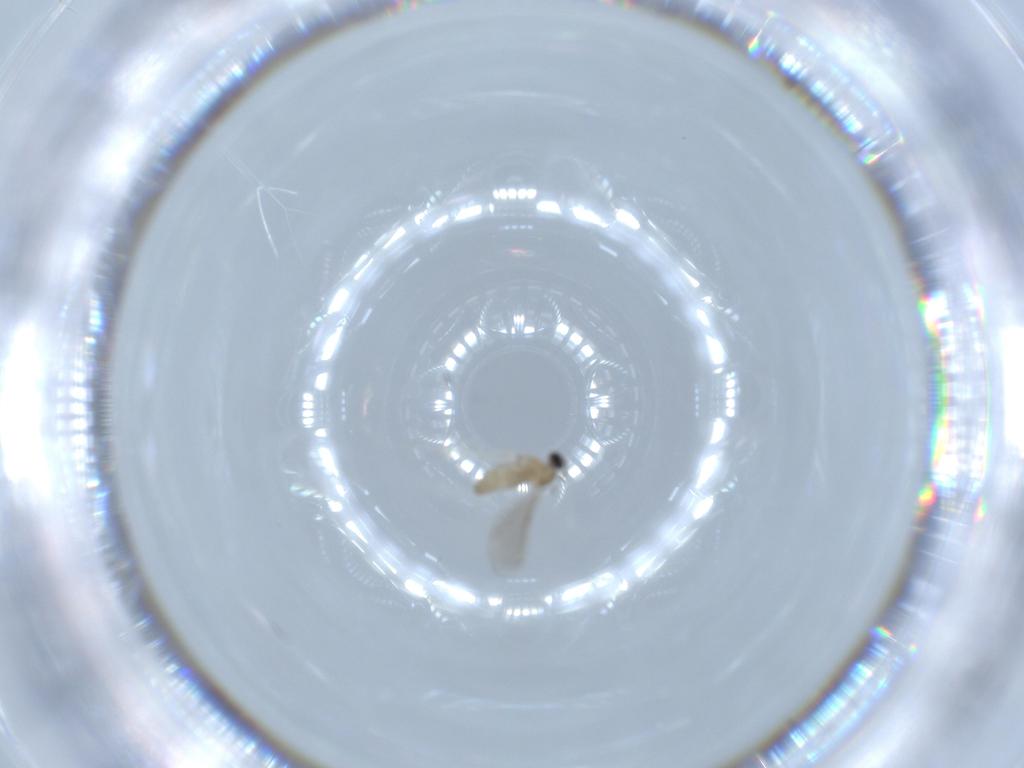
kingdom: Animalia
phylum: Arthropoda
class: Insecta
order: Diptera
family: Cecidomyiidae
